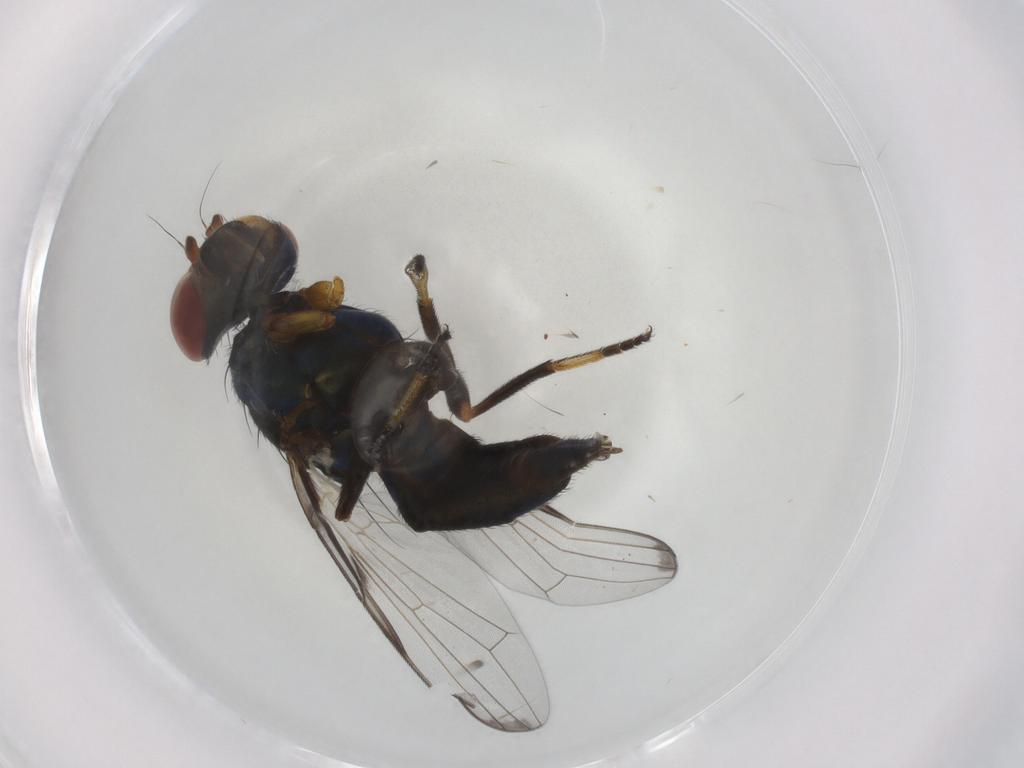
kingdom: Animalia
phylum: Arthropoda
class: Insecta
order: Diptera
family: Ulidiidae
